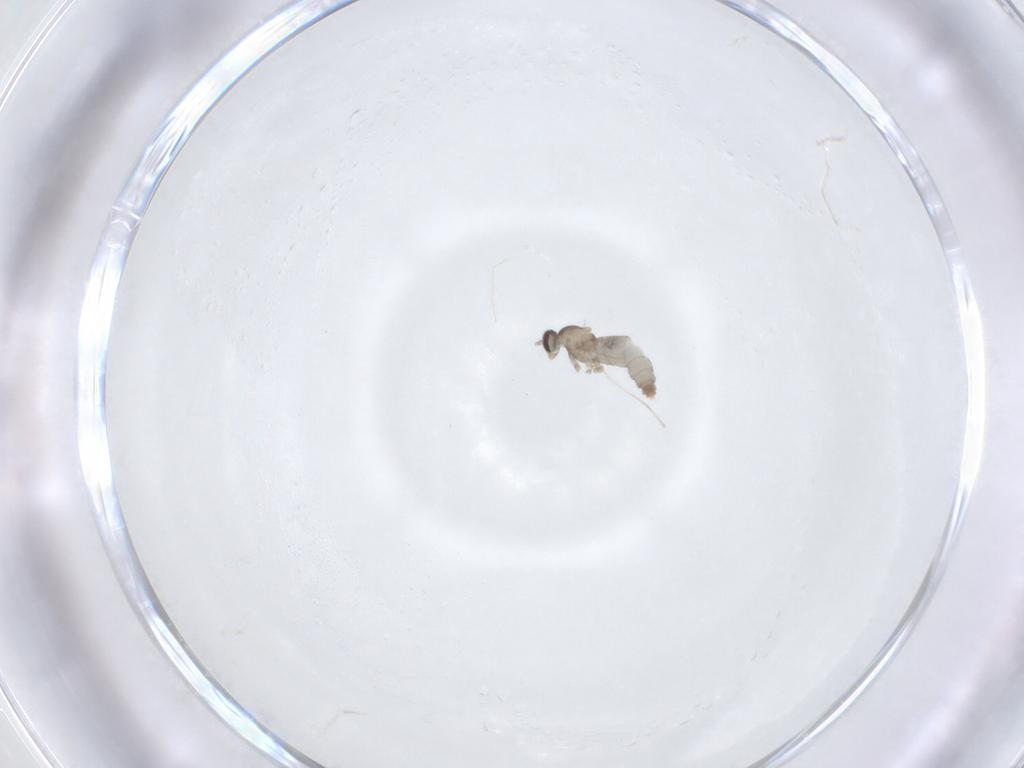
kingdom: Animalia
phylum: Arthropoda
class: Insecta
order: Diptera
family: Cecidomyiidae
